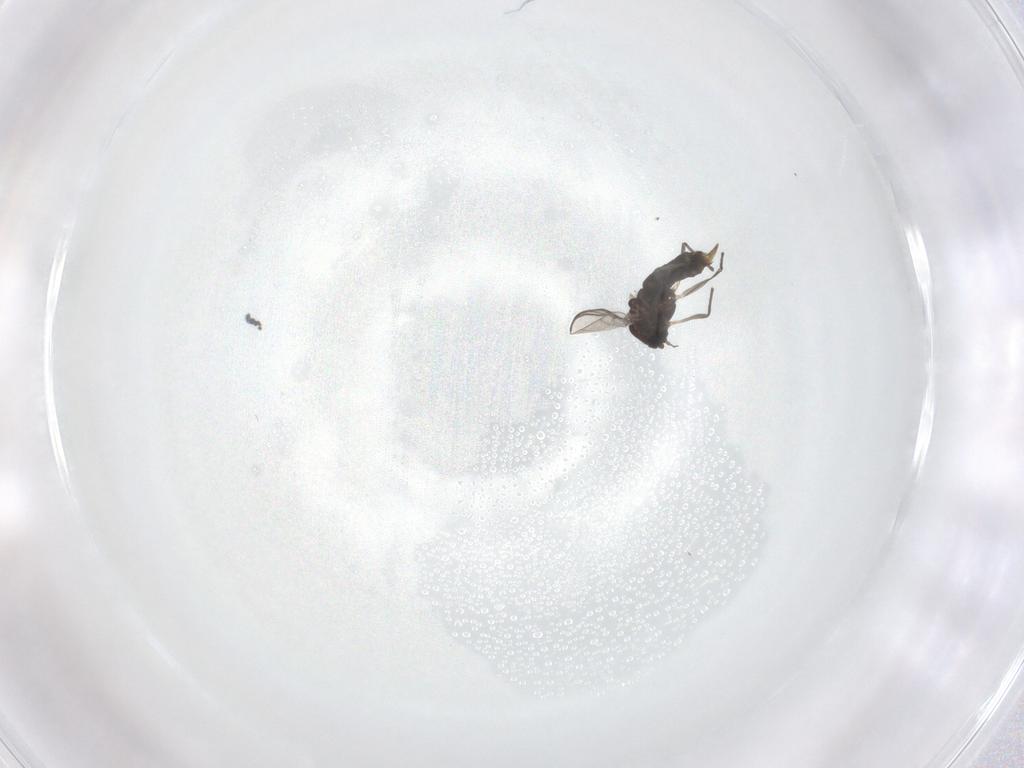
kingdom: Animalia
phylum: Arthropoda
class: Insecta
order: Diptera
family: Chironomidae
